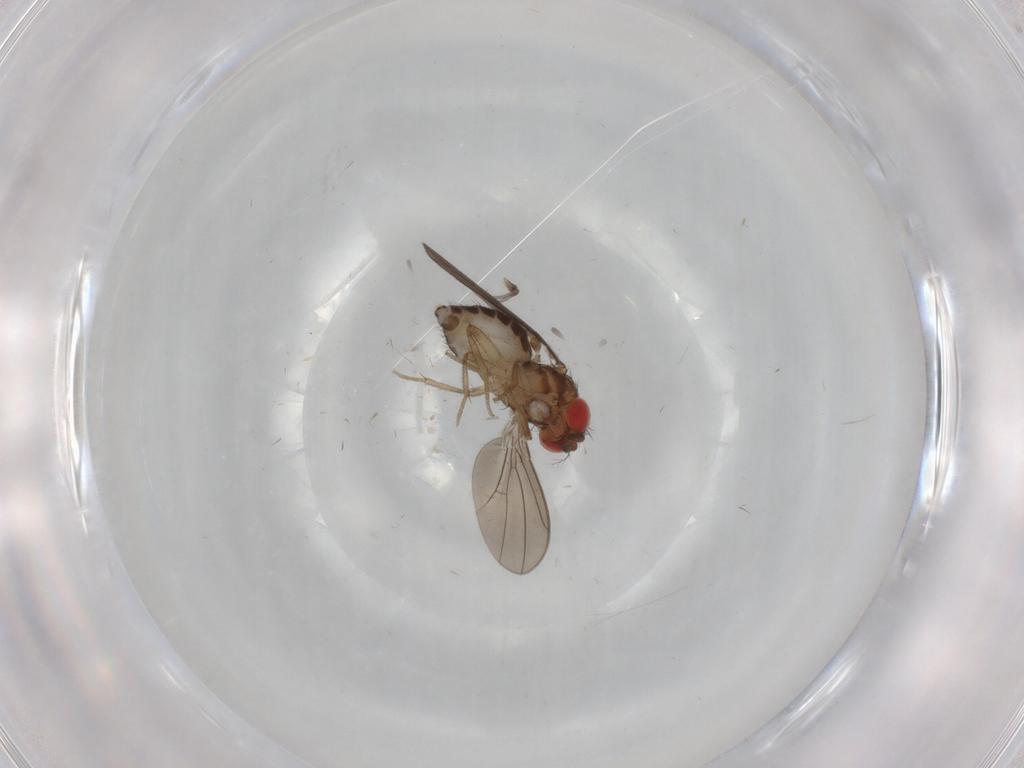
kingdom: Animalia
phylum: Arthropoda
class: Insecta
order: Diptera
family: Drosophilidae
